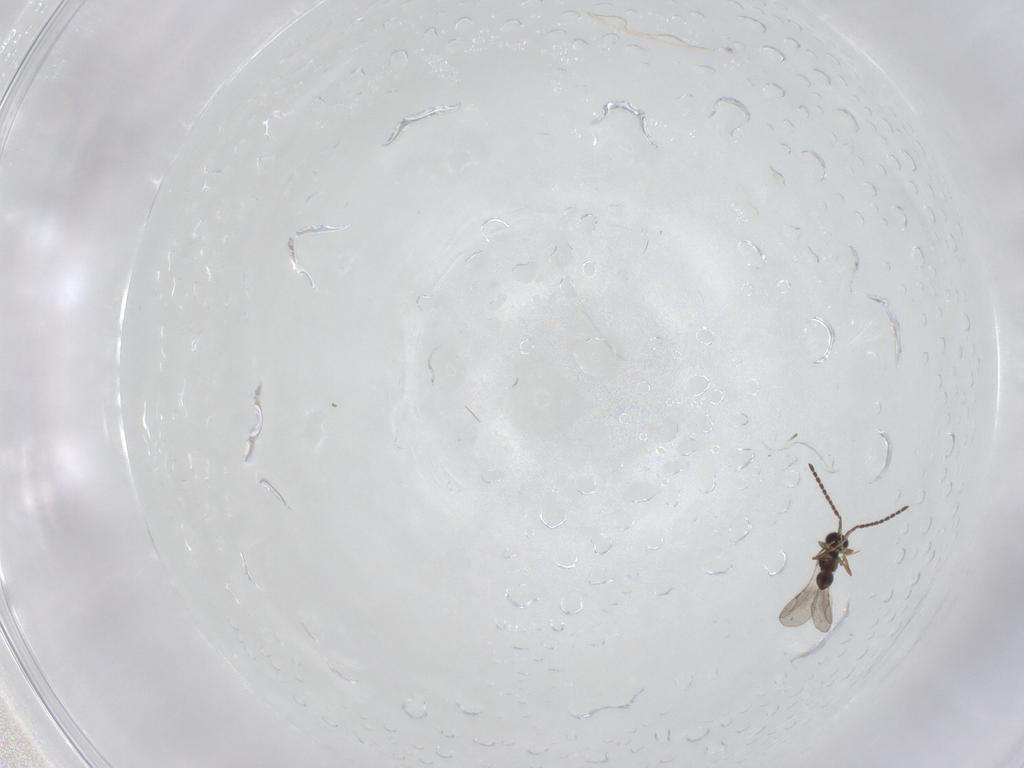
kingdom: Animalia
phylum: Arthropoda
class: Insecta
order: Hymenoptera
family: Ceraphronidae
